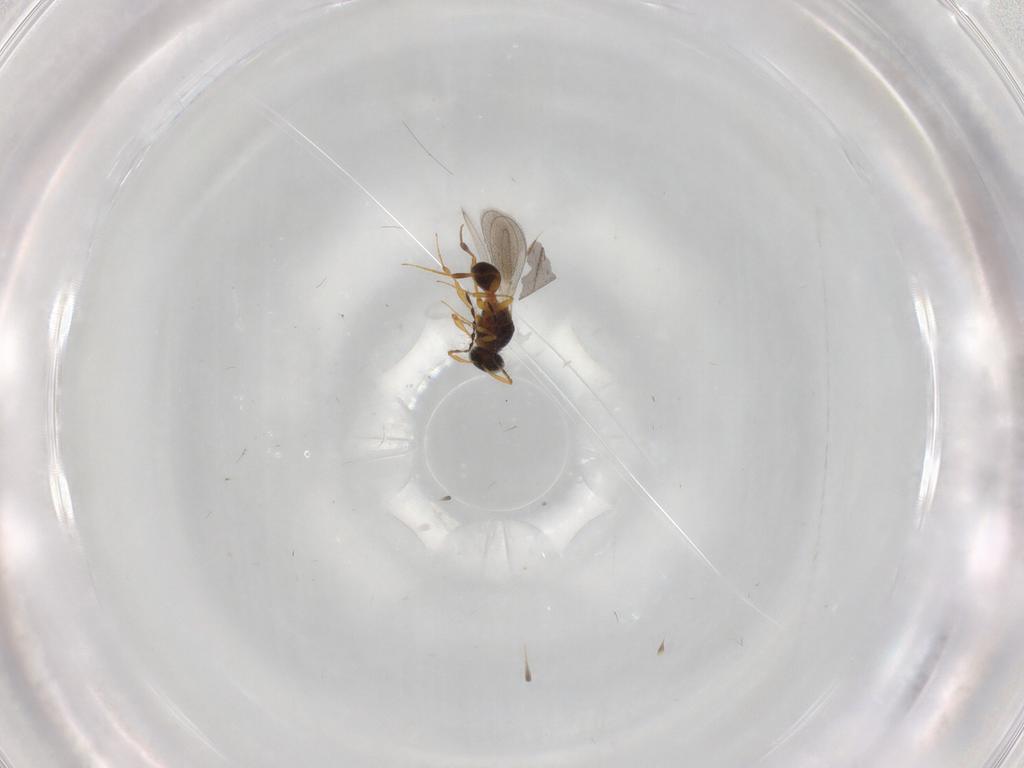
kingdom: Animalia
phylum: Arthropoda
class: Insecta
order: Hymenoptera
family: Platygastridae
